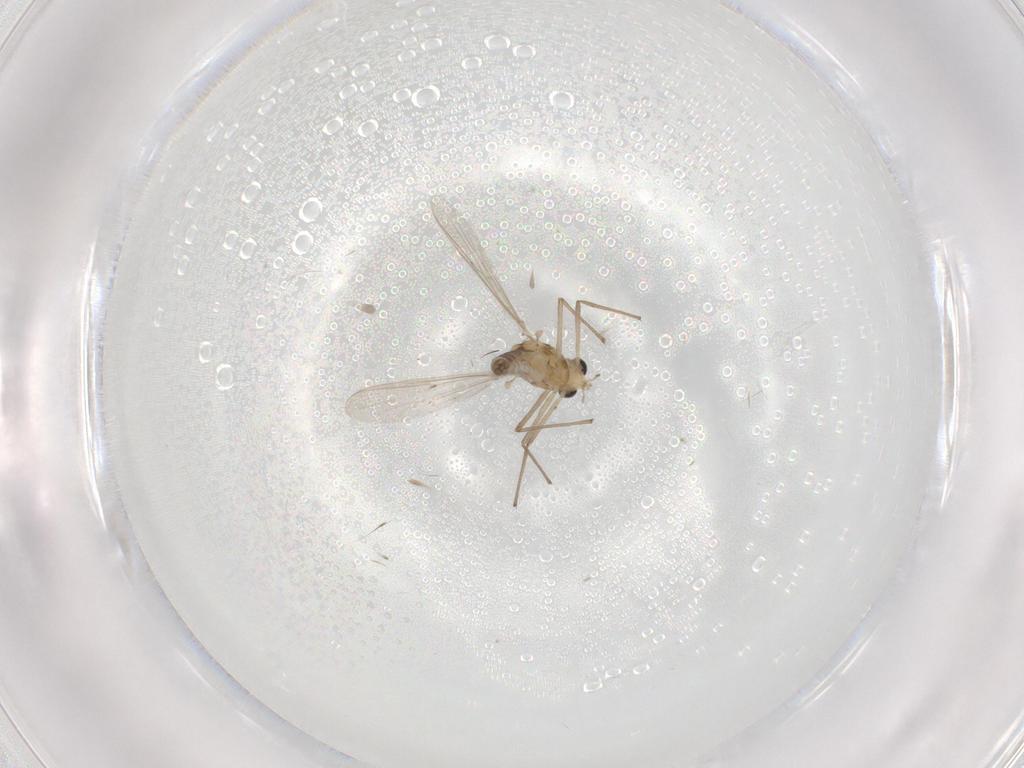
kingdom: Animalia
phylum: Arthropoda
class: Insecta
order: Diptera
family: Chironomidae
